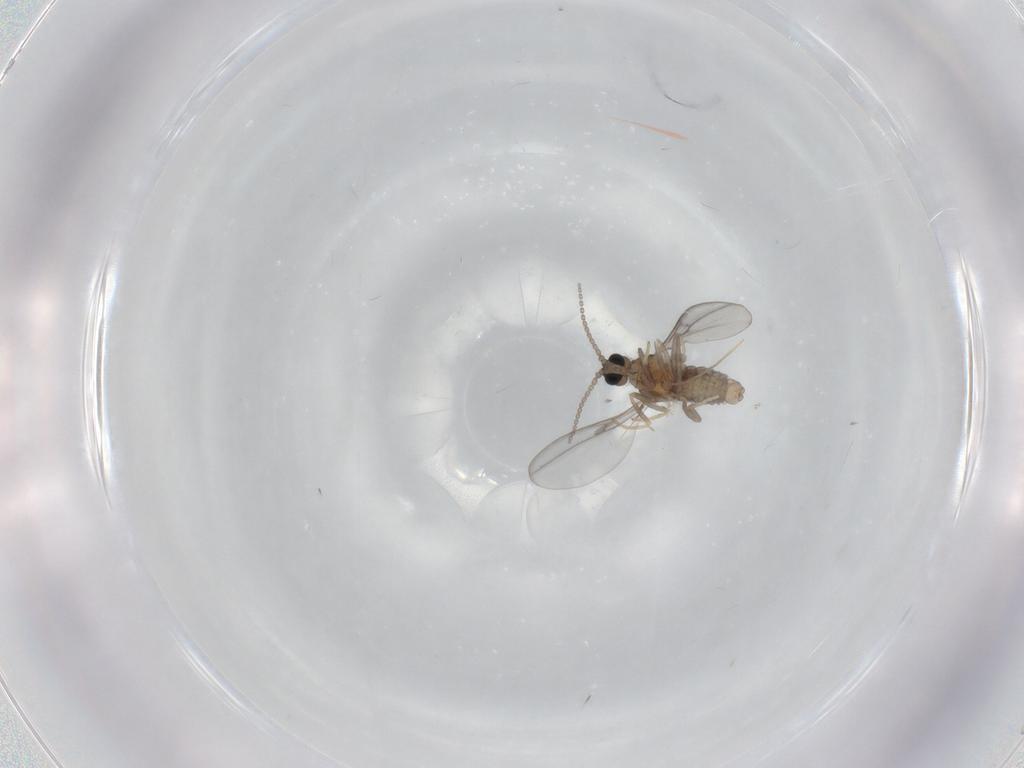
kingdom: Animalia
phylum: Arthropoda
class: Insecta
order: Diptera
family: Cecidomyiidae
